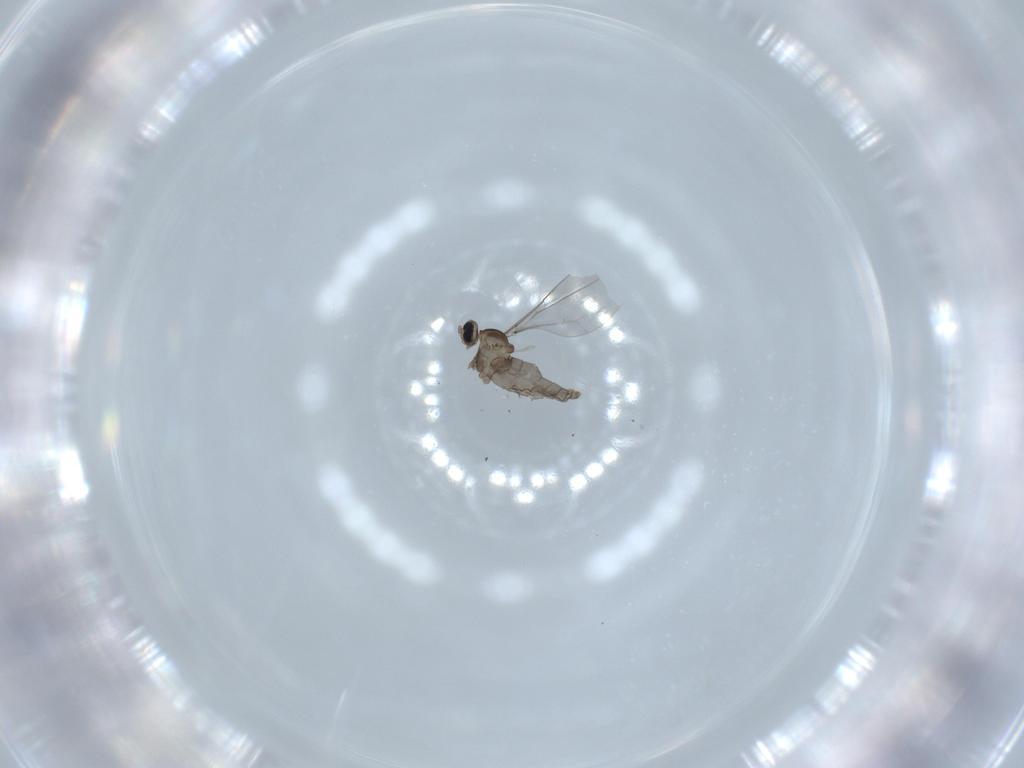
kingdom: Animalia
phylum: Arthropoda
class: Insecta
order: Diptera
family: Cecidomyiidae
